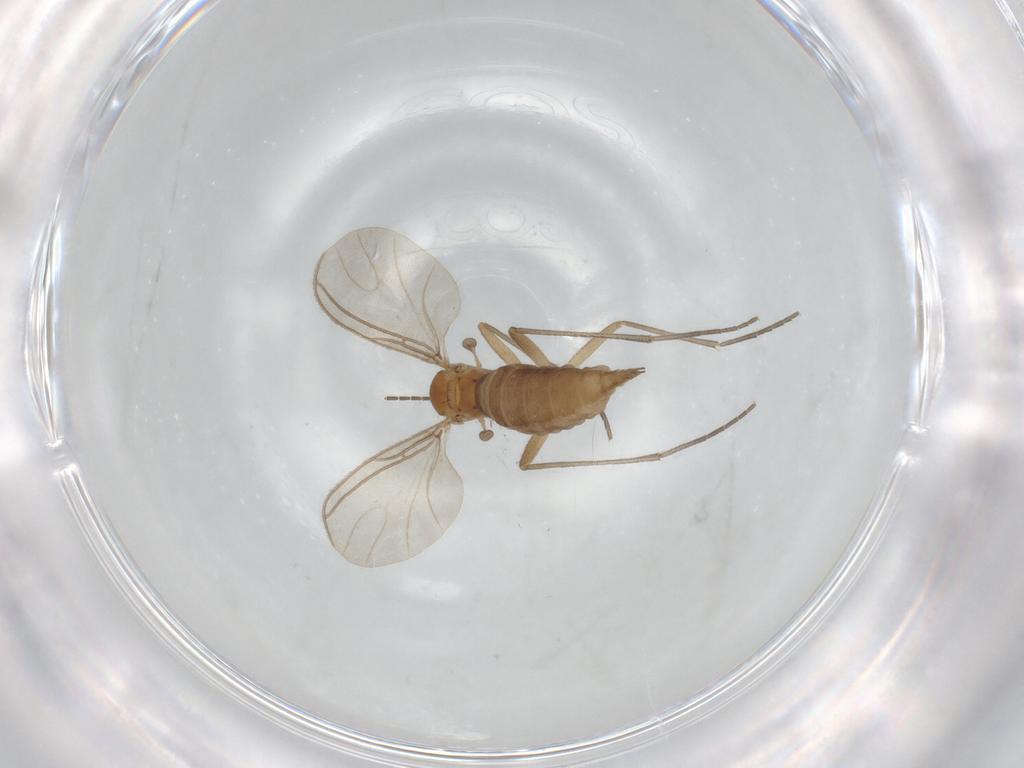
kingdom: Animalia
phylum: Arthropoda
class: Insecta
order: Diptera
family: Sciaridae
